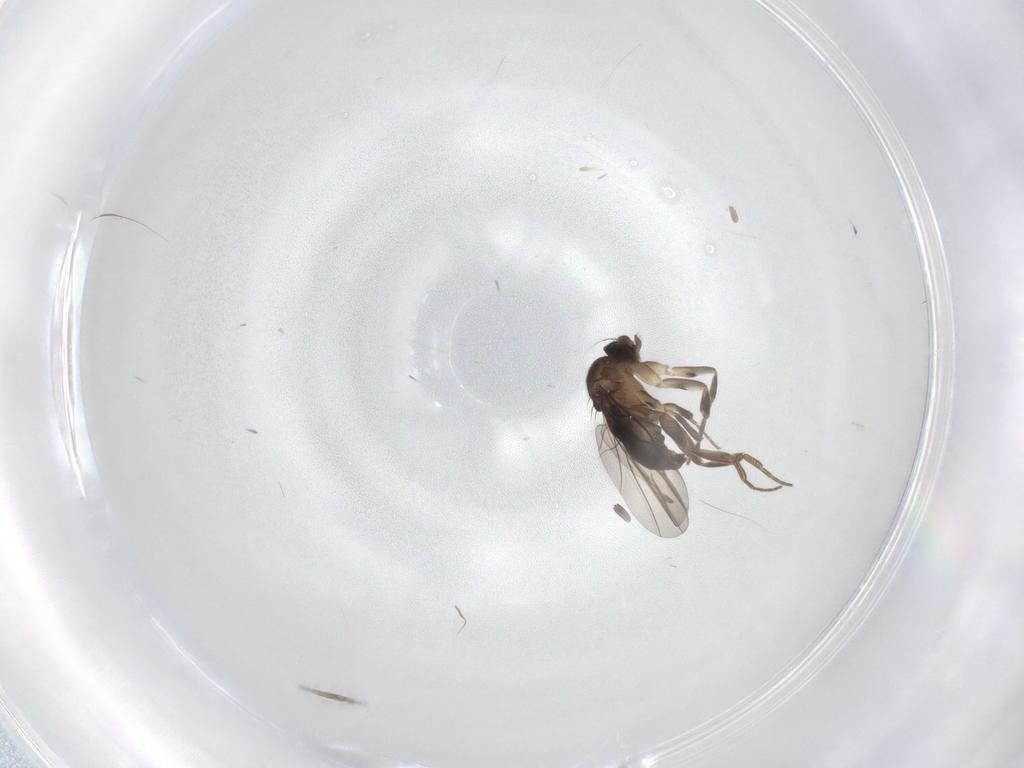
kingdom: Animalia
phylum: Arthropoda
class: Insecta
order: Diptera
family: Phoridae
